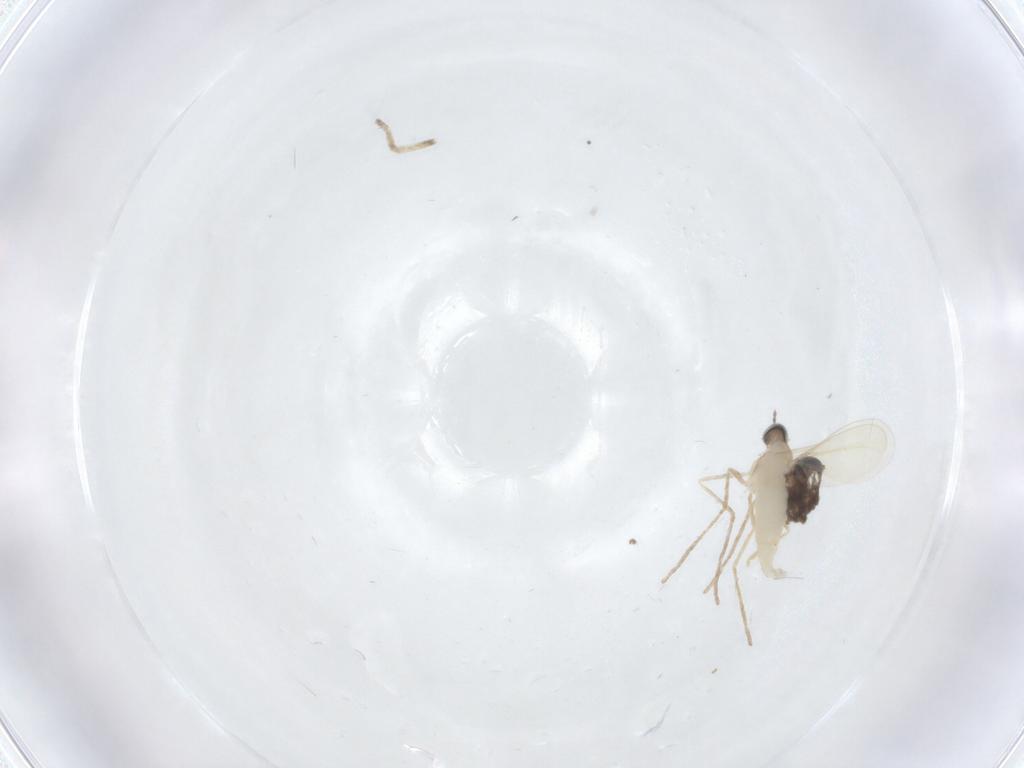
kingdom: Animalia
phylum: Arthropoda
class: Insecta
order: Diptera
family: Cecidomyiidae
